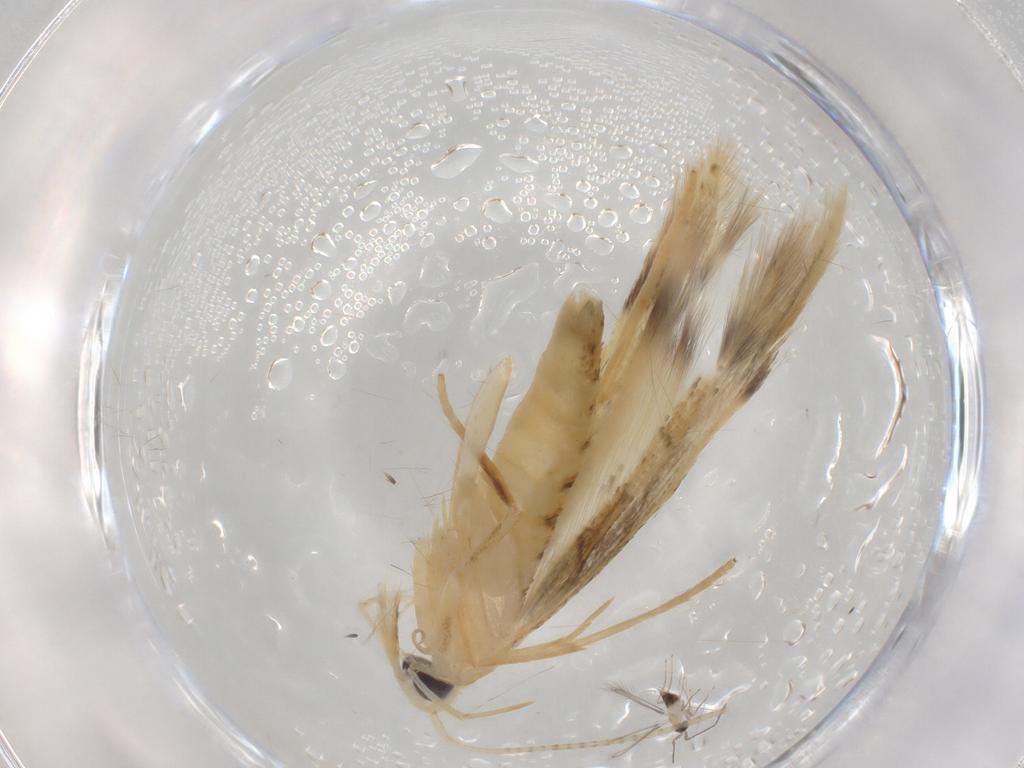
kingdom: Animalia
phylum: Arthropoda
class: Insecta
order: Lepidoptera
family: Gelechiidae
